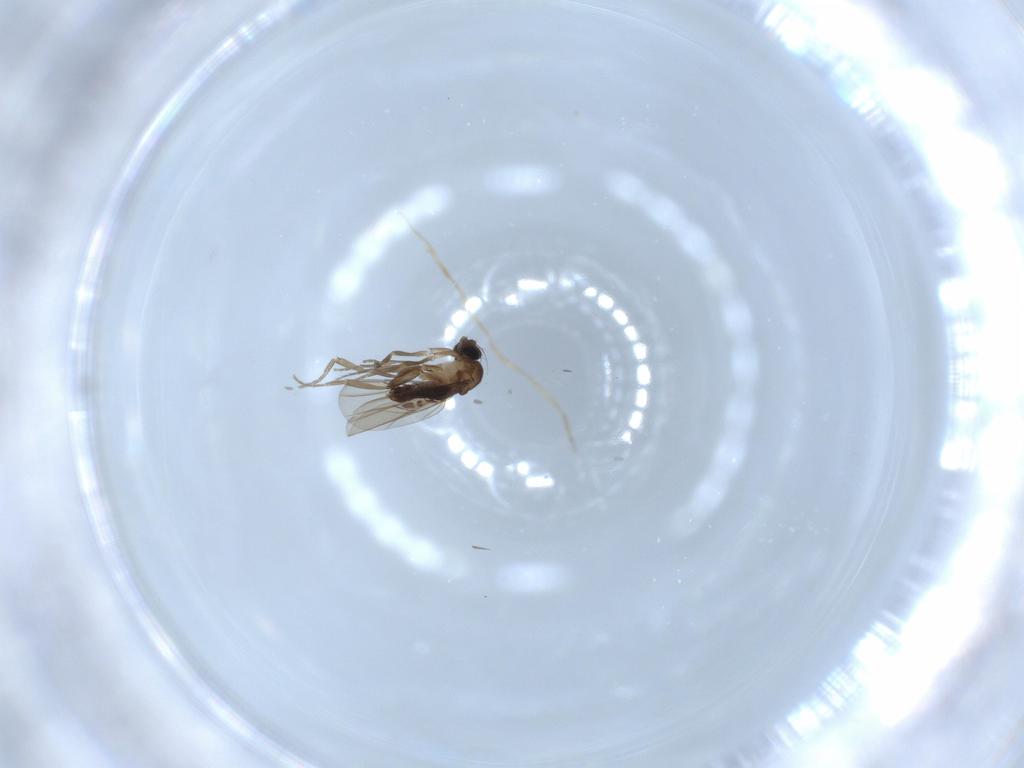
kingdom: Animalia
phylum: Arthropoda
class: Insecta
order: Diptera
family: Phoridae
